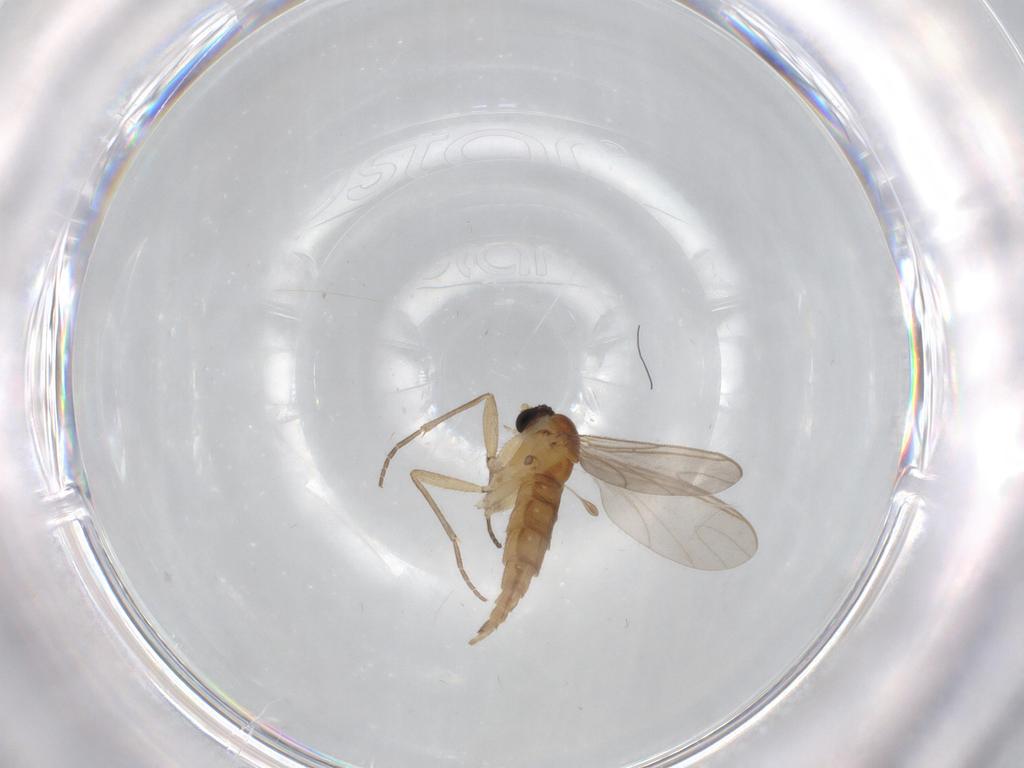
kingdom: Animalia
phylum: Arthropoda
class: Insecta
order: Diptera
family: Sciaridae
